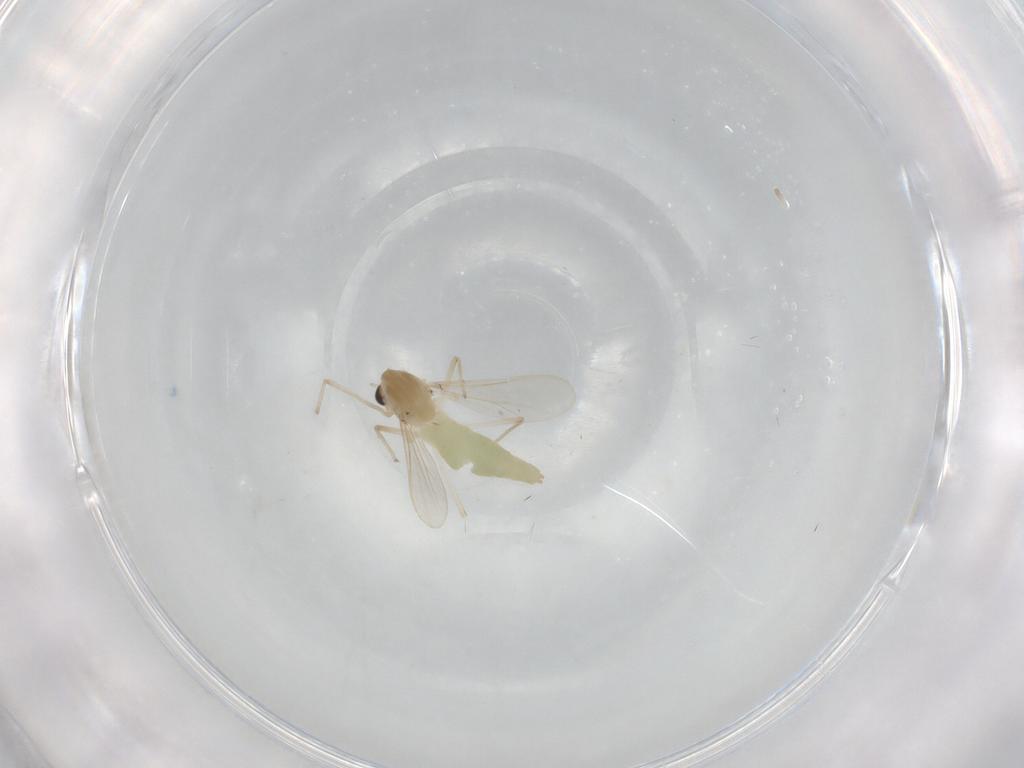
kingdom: Animalia
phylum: Arthropoda
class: Insecta
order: Diptera
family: Chironomidae
